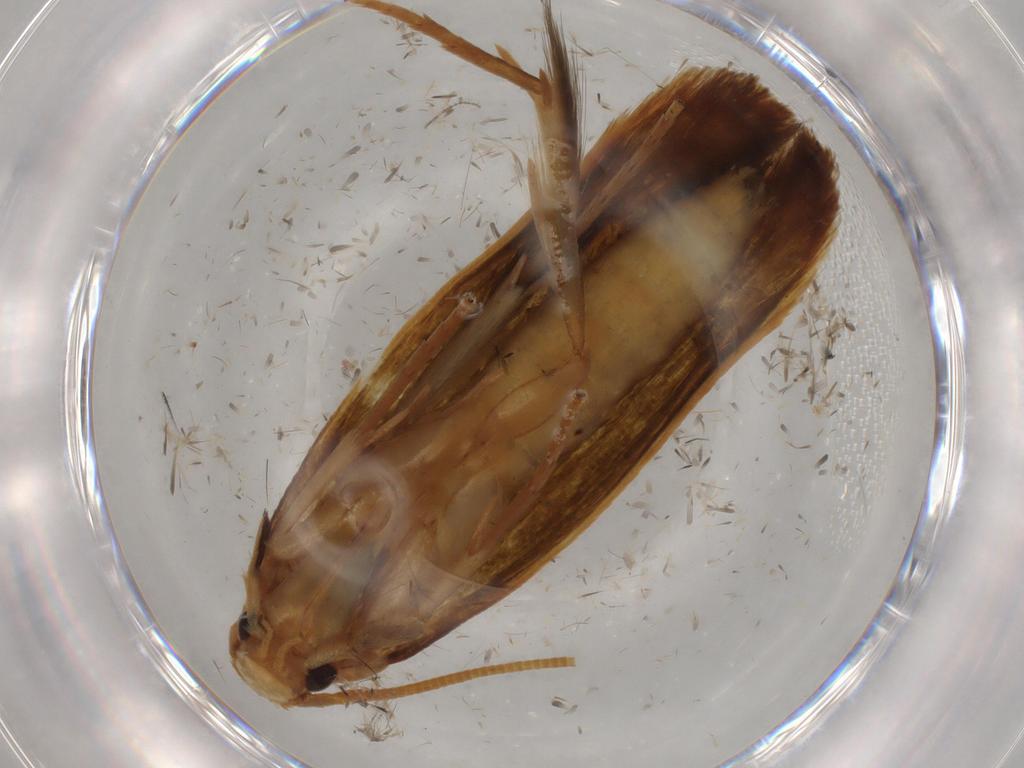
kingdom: Animalia
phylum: Arthropoda
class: Insecta
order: Lepidoptera
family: Tineidae
